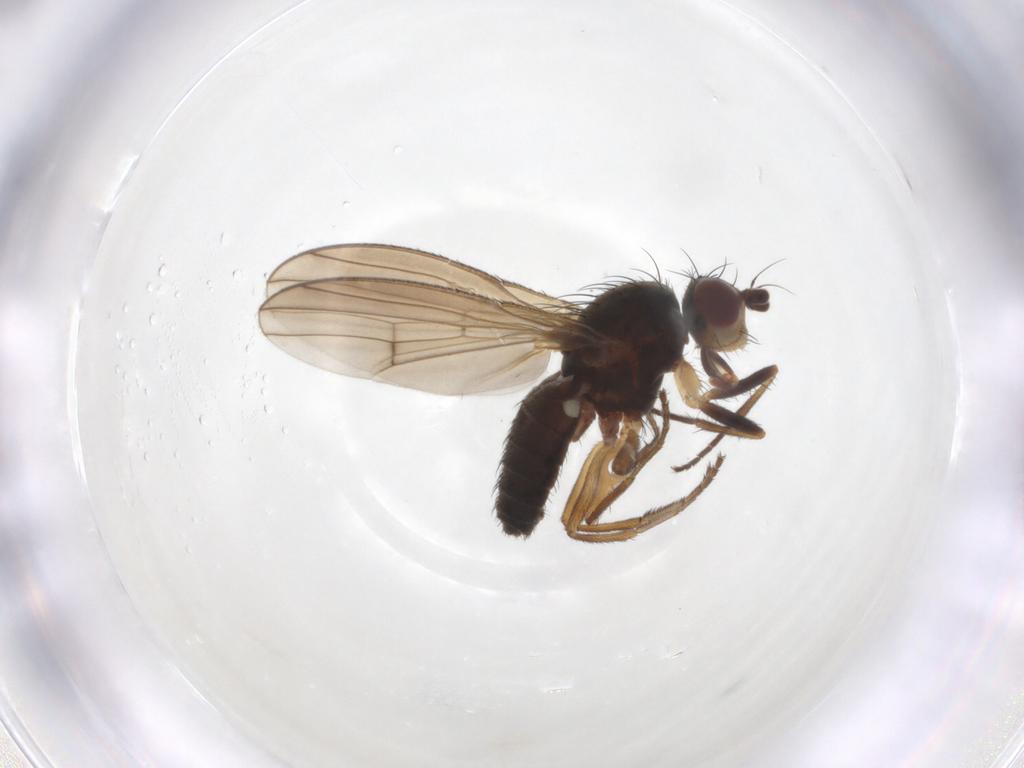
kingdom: Animalia
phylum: Arthropoda
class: Insecta
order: Diptera
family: Heleomyzidae
